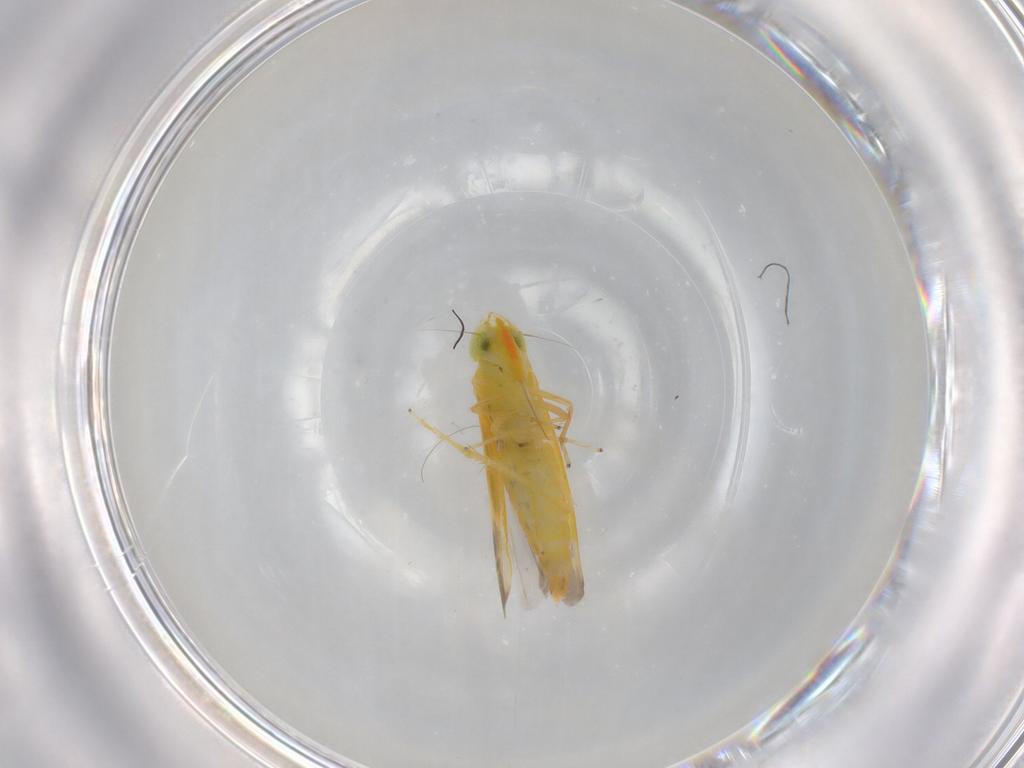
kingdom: Animalia
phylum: Arthropoda
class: Insecta
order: Hemiptera
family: Cicadellidae
